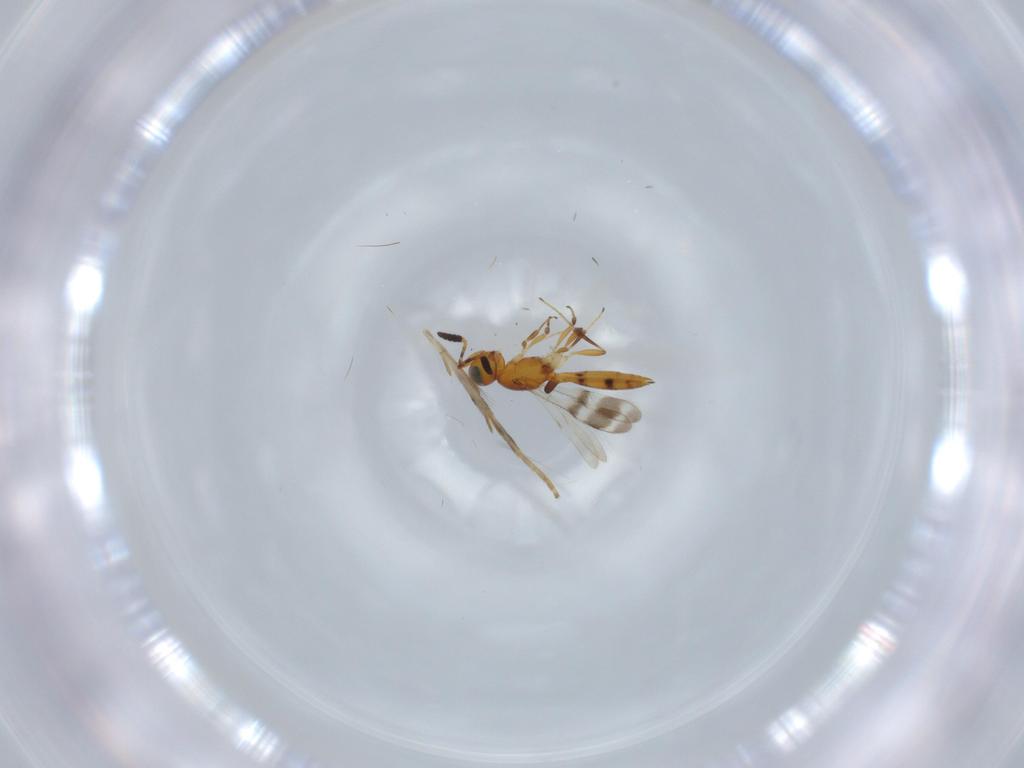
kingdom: Animalia
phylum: Arthropoda
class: Insecta
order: Hymenoptera
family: Scelionidae
